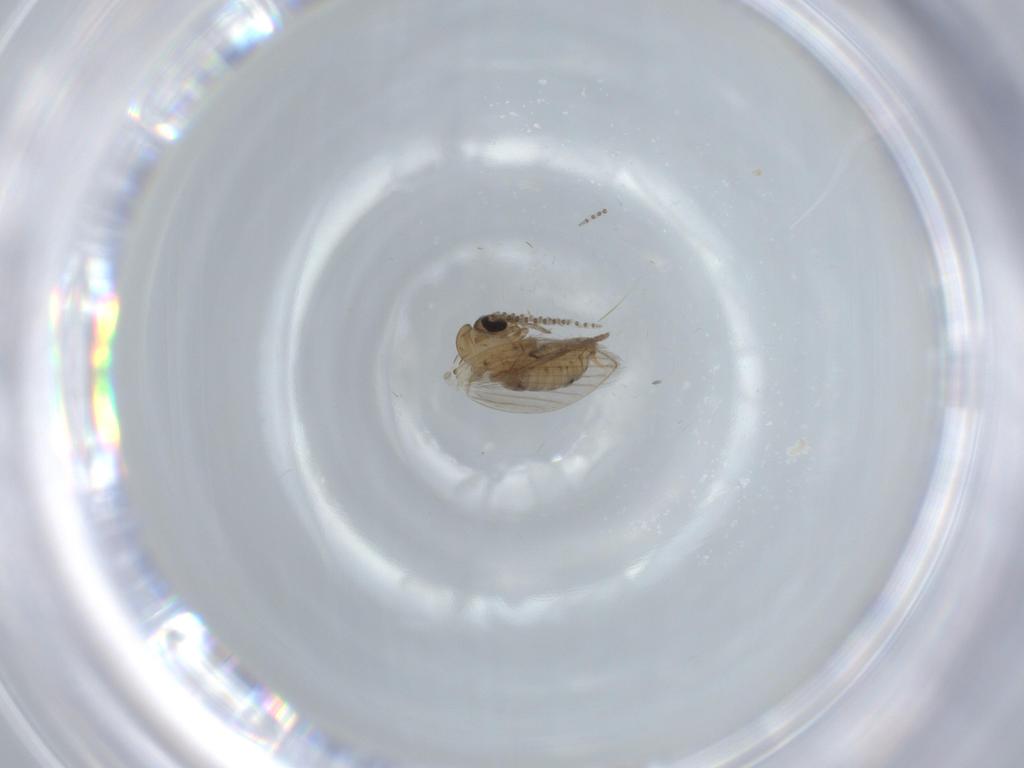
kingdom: Animalia
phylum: Arthropoda
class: Insecta
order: Diptera
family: Psychodidae
